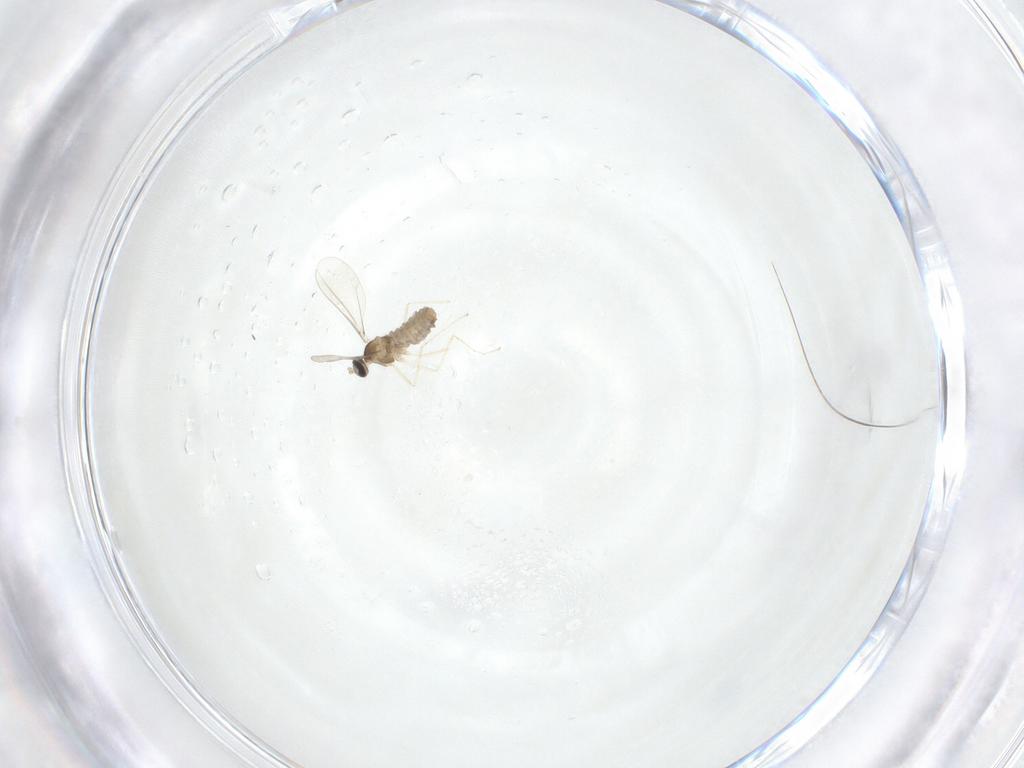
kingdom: Animalia
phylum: Arthropoda
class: Insecta
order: Diptera
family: Cecidomyiidae
